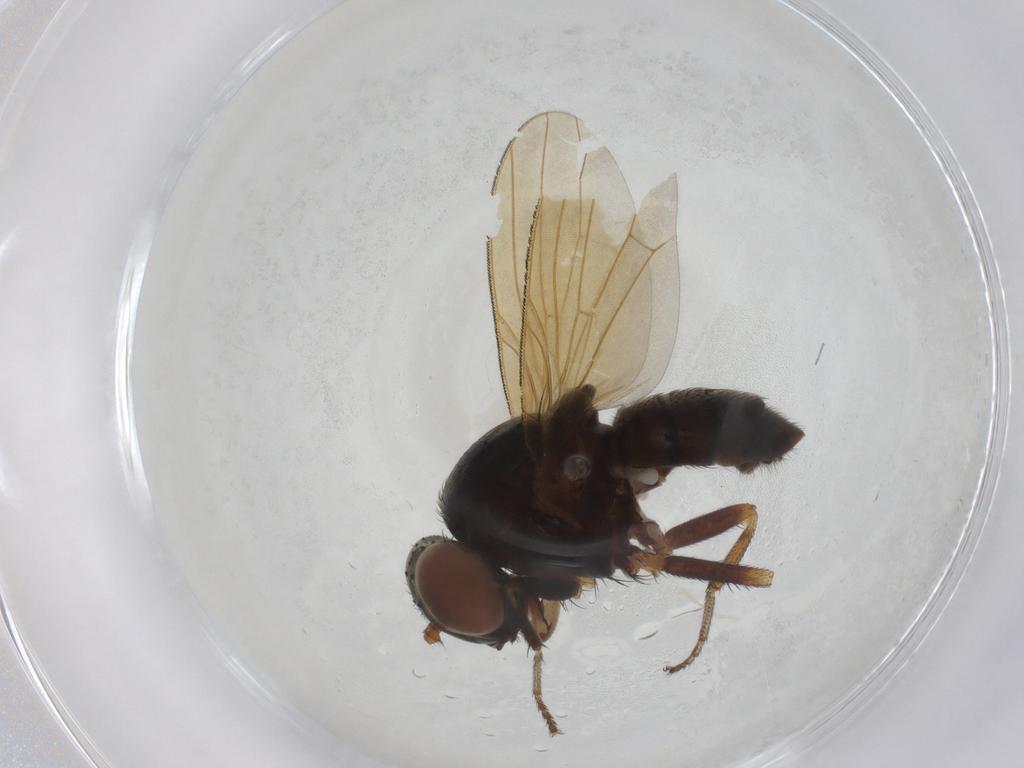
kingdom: Animalia
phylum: Arthropoda
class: Insecta
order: Diptera
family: Lauxaniidae
